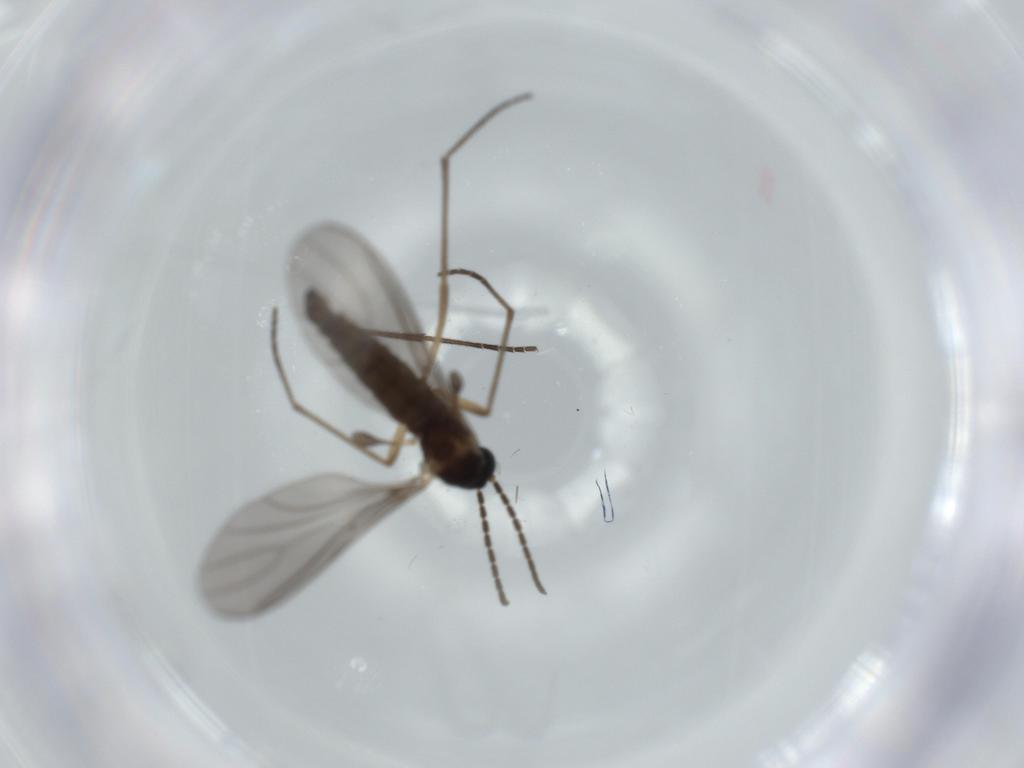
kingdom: Animalia
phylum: Arthropoda
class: Insecta
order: Diptera
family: Sciaridae
